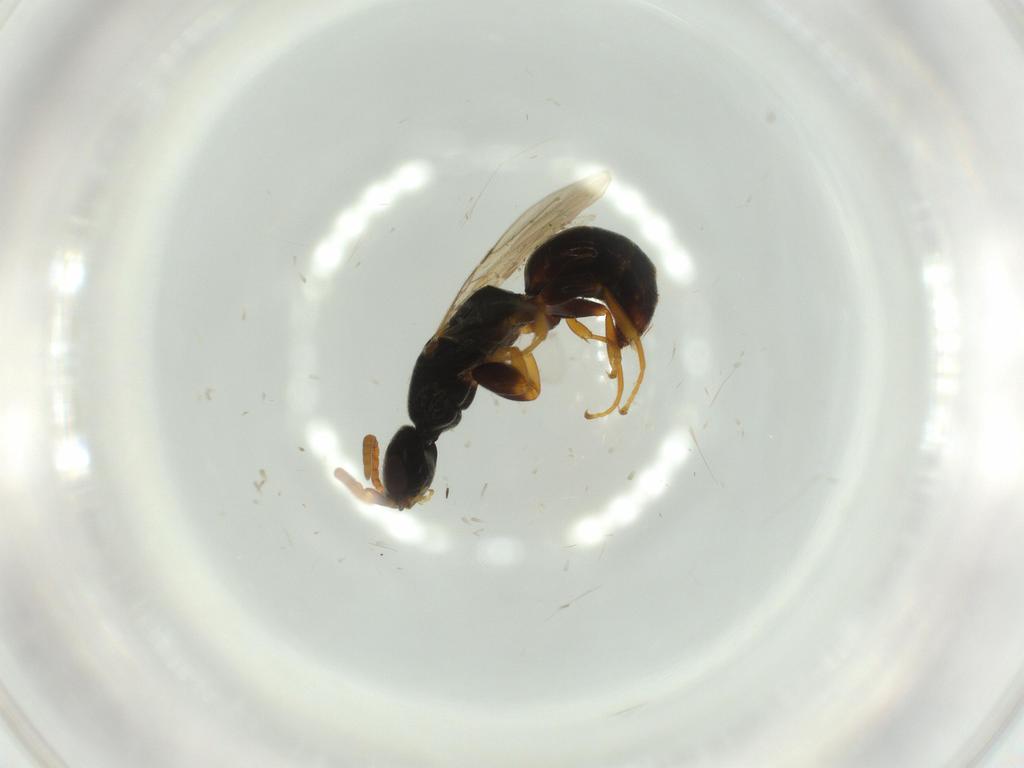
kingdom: Animalia
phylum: Arthropoda
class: Insecta
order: Hymenoptera
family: Bethylidae
